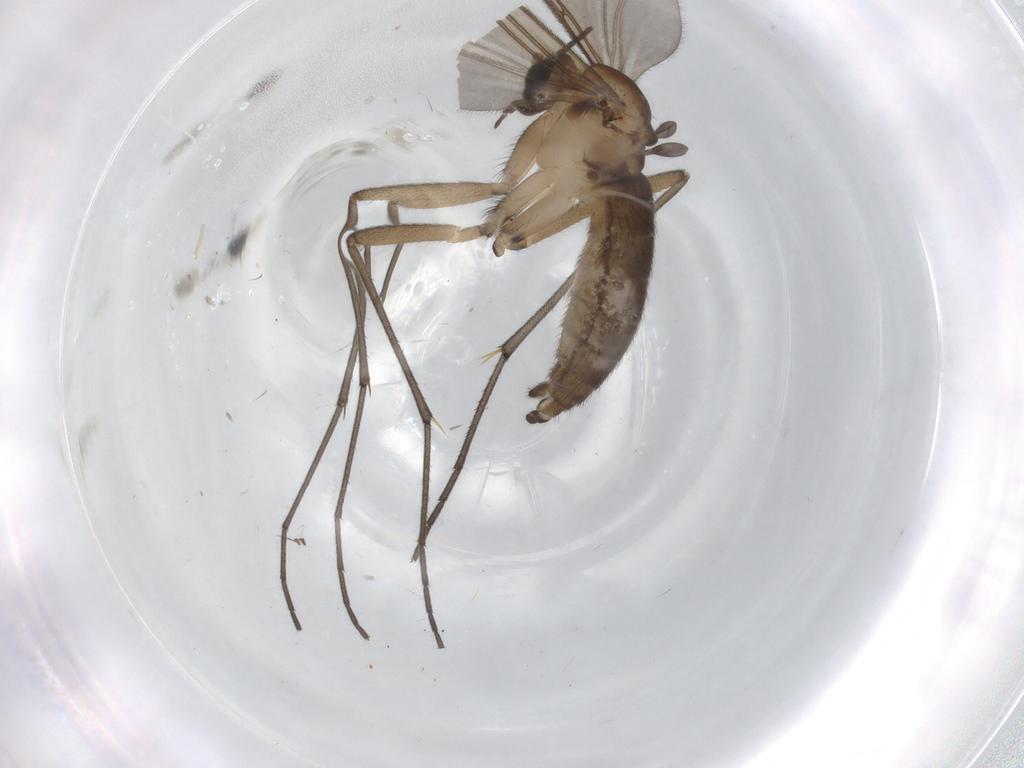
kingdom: Animalia
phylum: Arthropoda
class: Insecta
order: Diptera
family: Sciaridae
